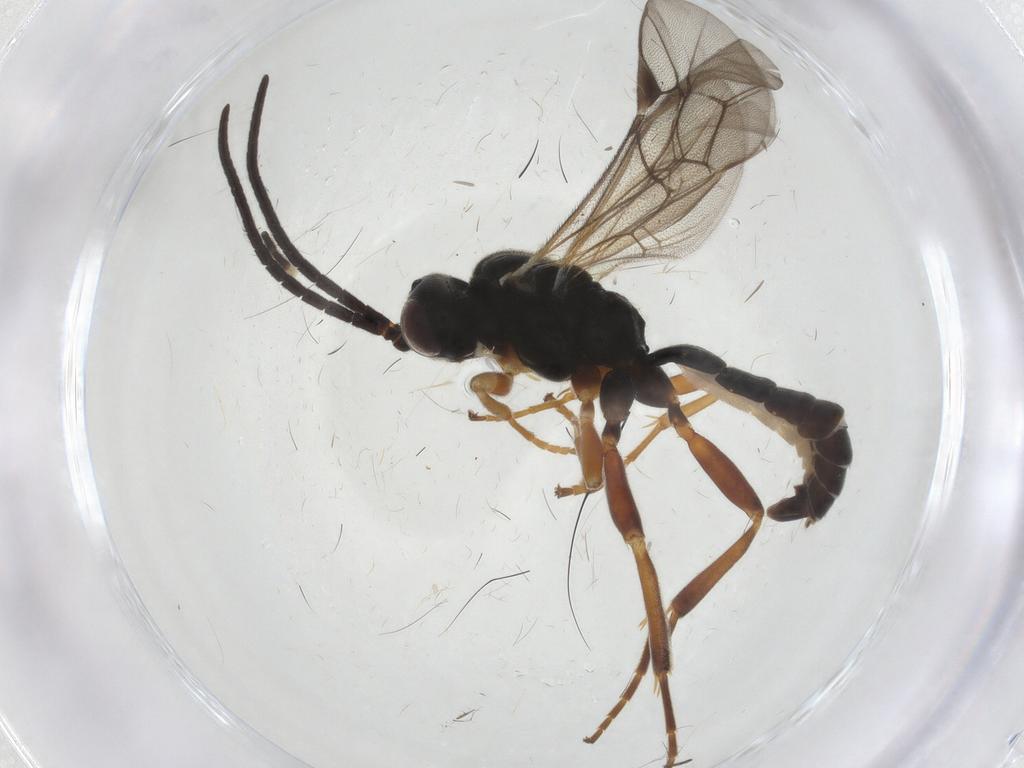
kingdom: Animalia
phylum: Arthropoda
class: Insecta
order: Hymenoptera
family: Ichneumonidae
